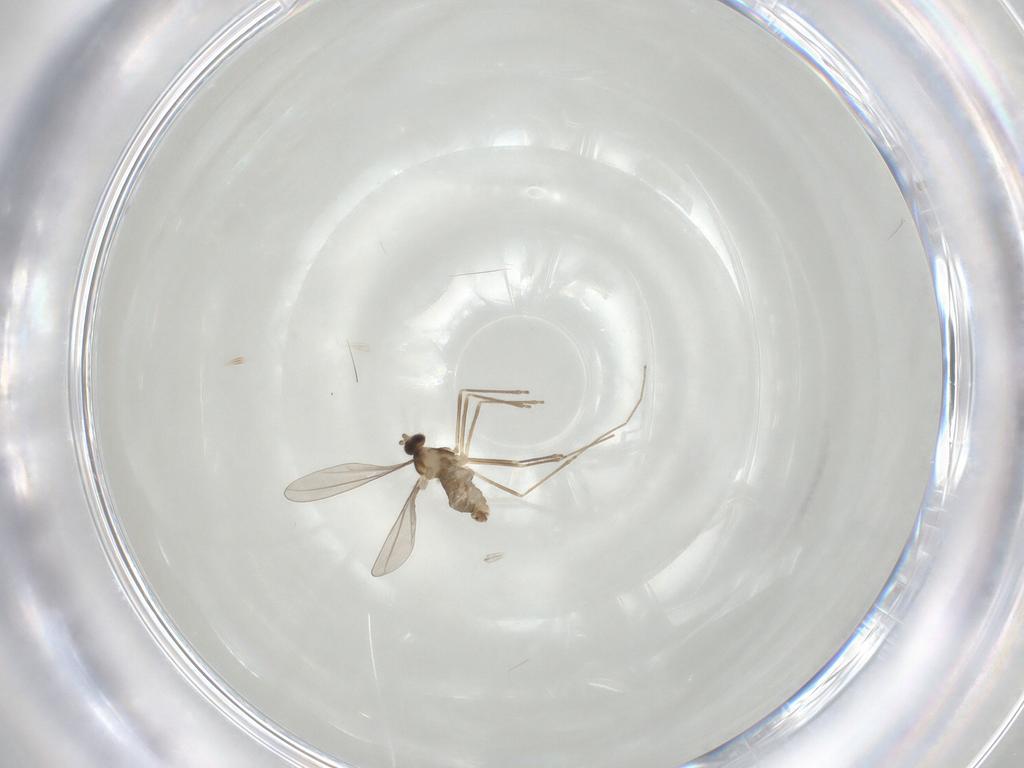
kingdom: Animalia
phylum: Arthropoda
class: Insecta
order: Diptera
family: Cecidomyiidae
